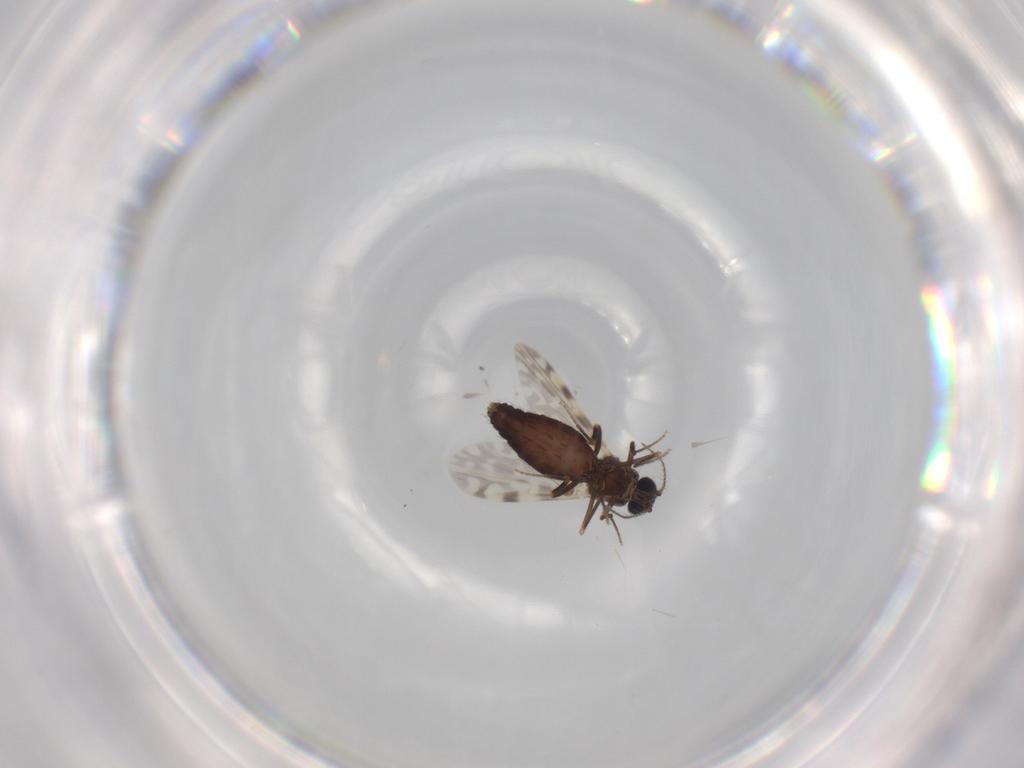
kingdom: Animalia
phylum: Arthropoda
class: Insecta
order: Diptera
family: Ceratopogonidae
